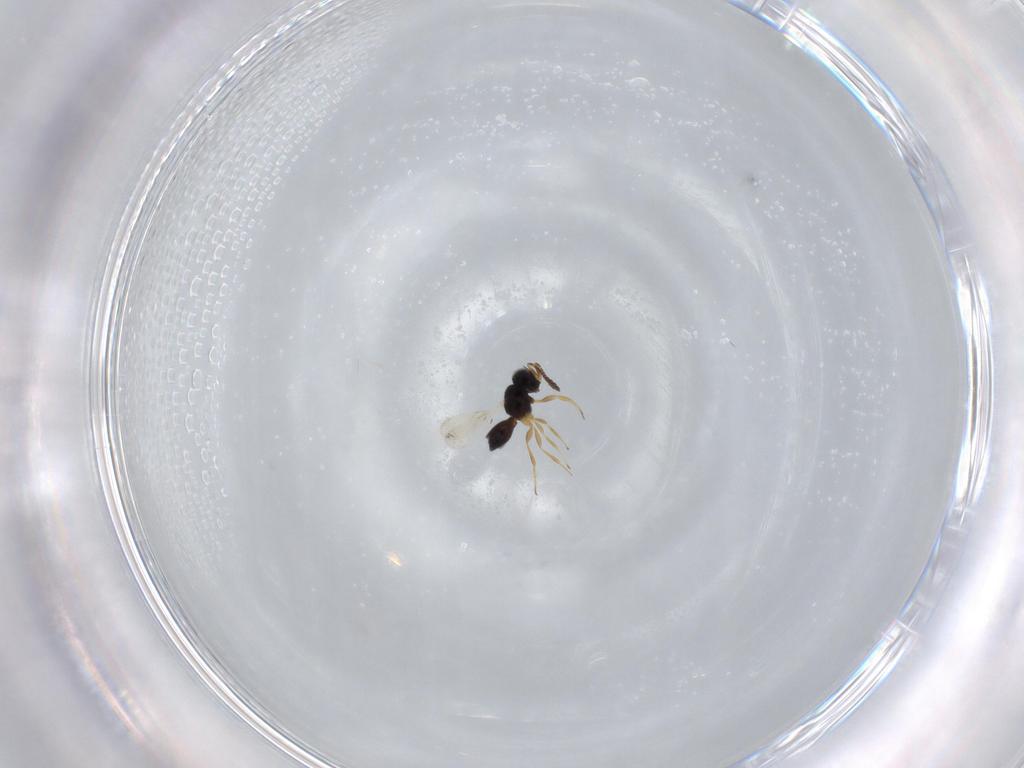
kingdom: Animalia
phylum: Arthropoda
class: Insecta
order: Hymenoptera
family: Scelionidae
